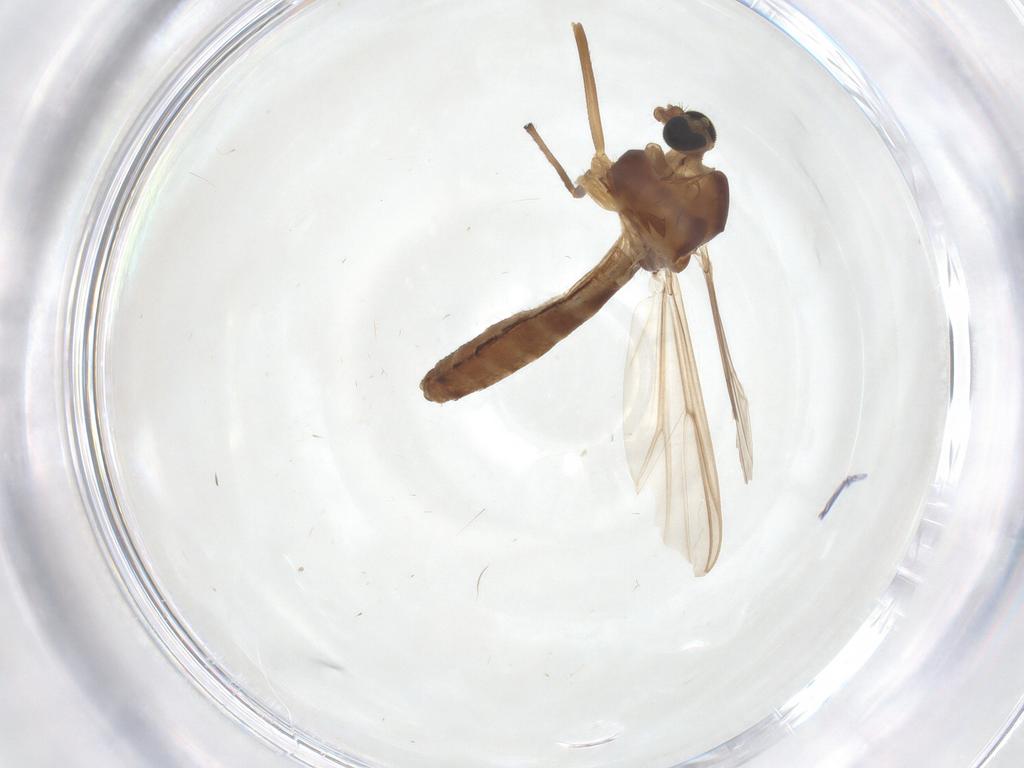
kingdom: Animalia
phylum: Arthropoda
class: Insecta
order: Diptera
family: Chironomidae
